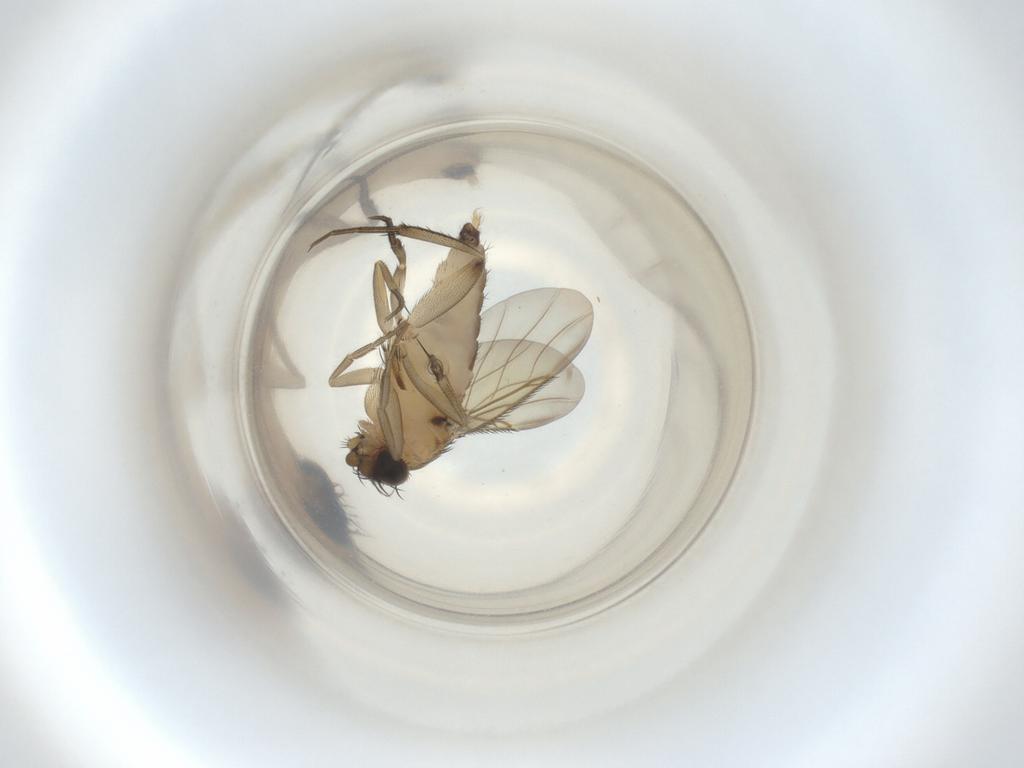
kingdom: Animalia
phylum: Arthropoda
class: Insecta
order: Diptera
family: Phoridae
